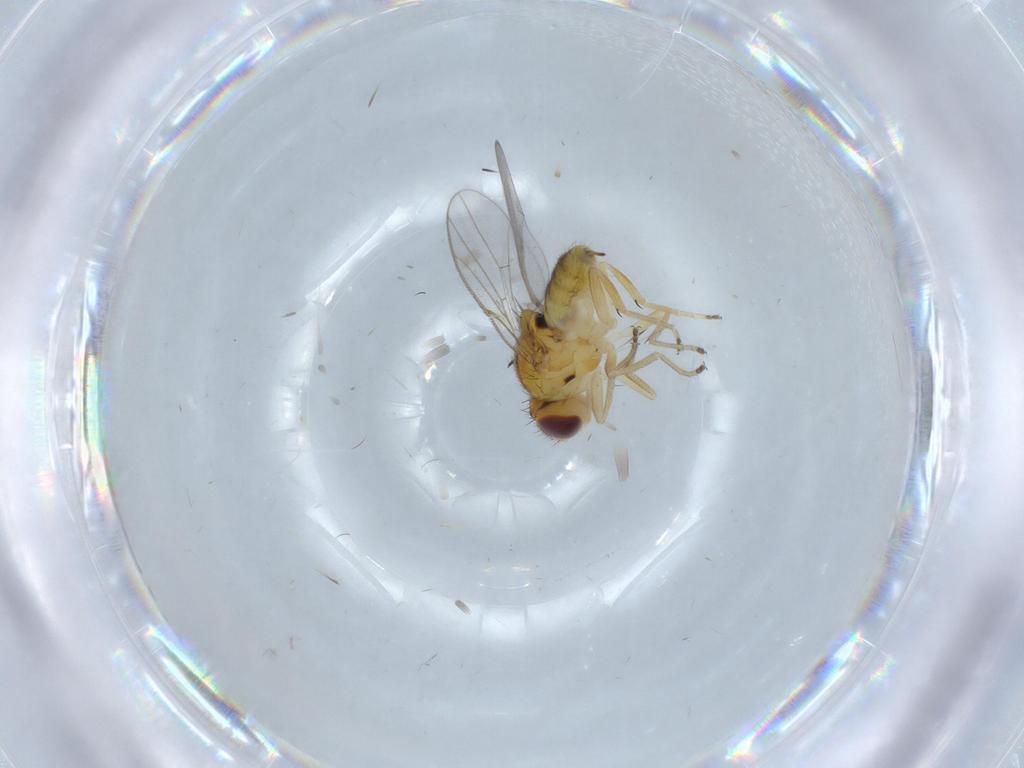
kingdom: Animalia
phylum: Arthropoda
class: Insecta
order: Diptera
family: Chloropidae
